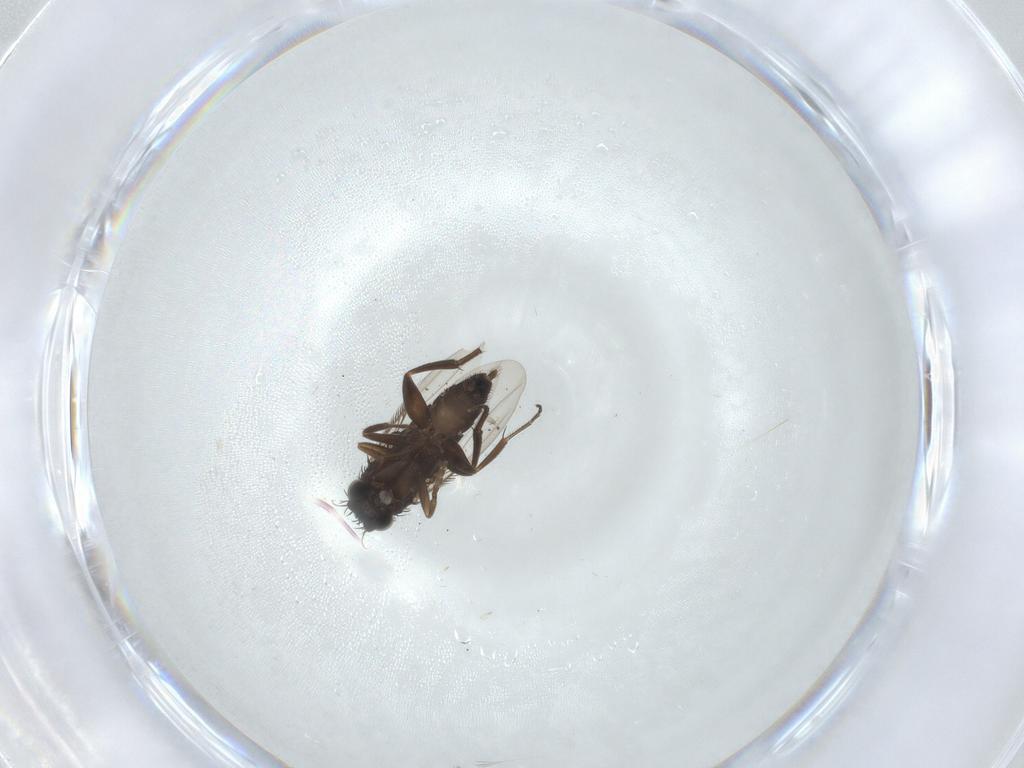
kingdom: Animalia
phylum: Arthropoda
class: Insecta
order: Diptera
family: Phoridae
